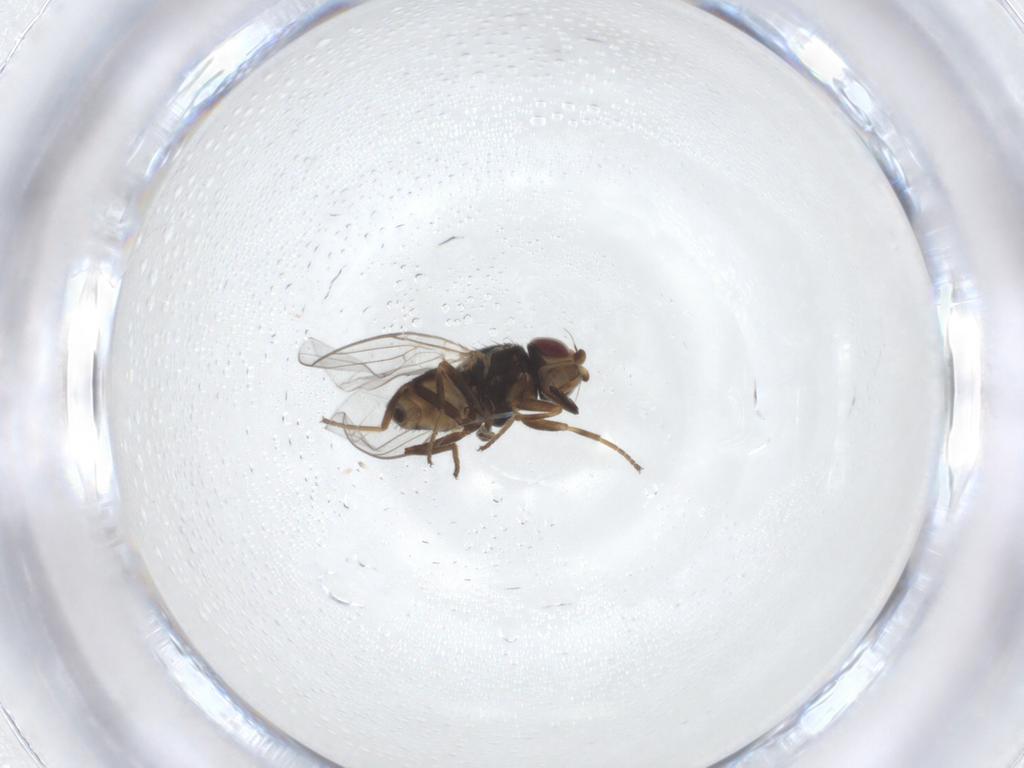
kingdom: Animalia
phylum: Arthropoda
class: Insecta
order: Diptera
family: Chloropidae
